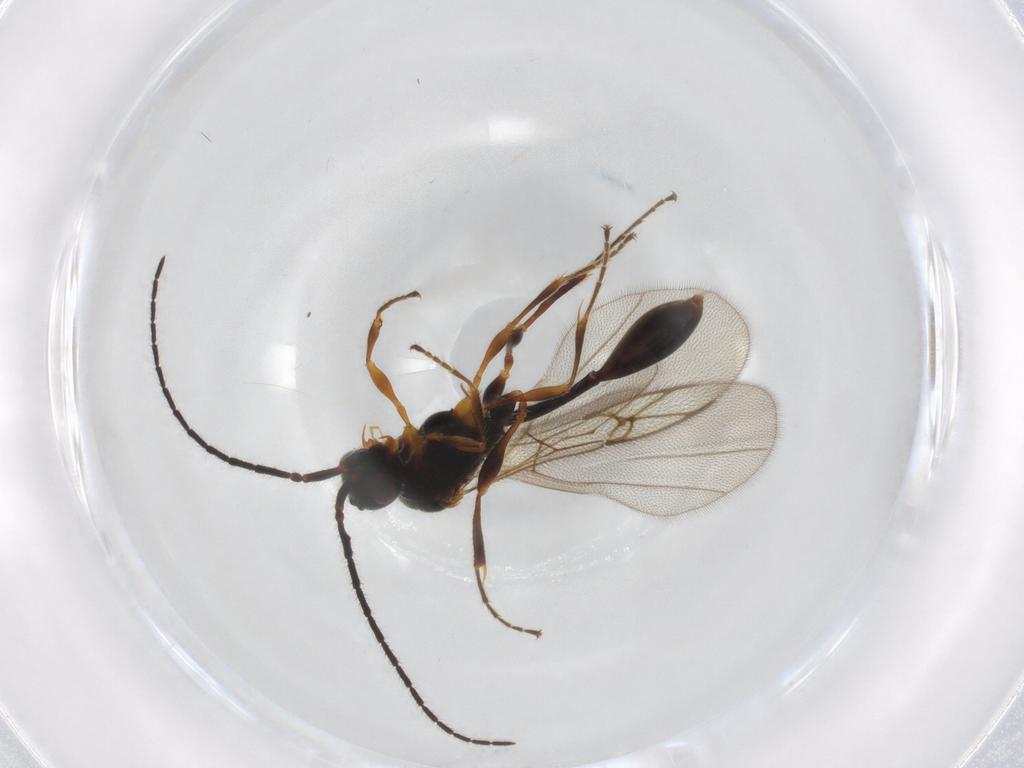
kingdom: Animalia
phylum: Arthropoda
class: Insecta
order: Hymenoptera
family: Diapriidae
